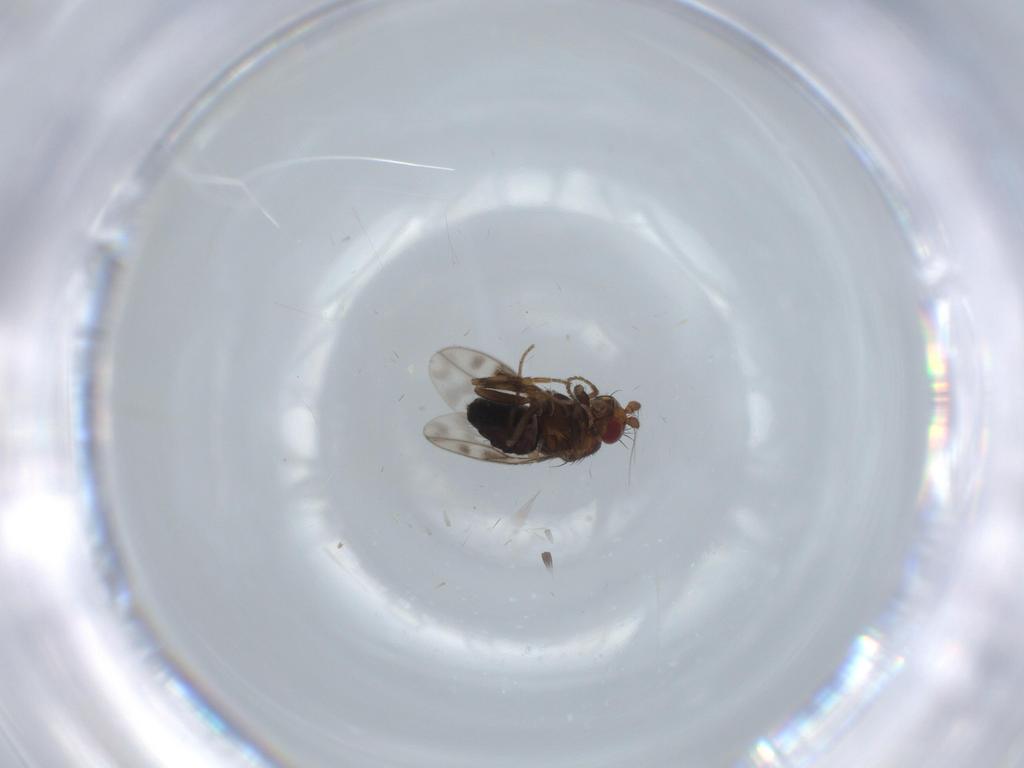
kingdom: Animalia
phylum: Arthropoda
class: Insecta
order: Diptera
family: Sphaeroceridae
